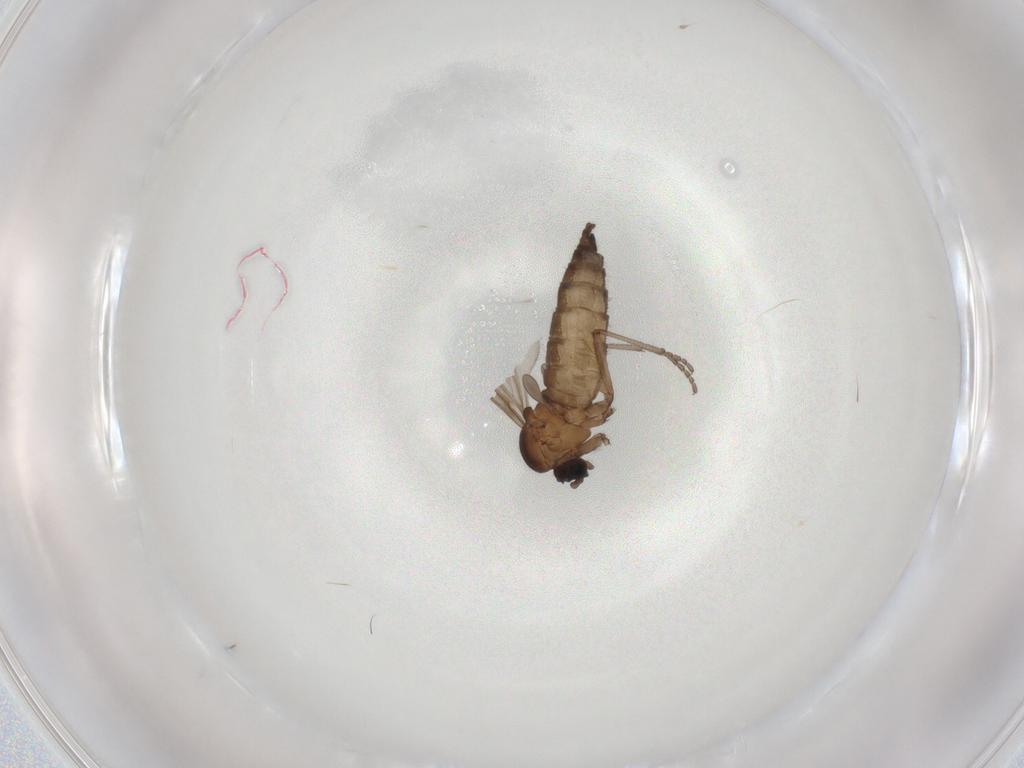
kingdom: Animalia
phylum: Arthropoda
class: Insecta
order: Diptera
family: Sciaridae
